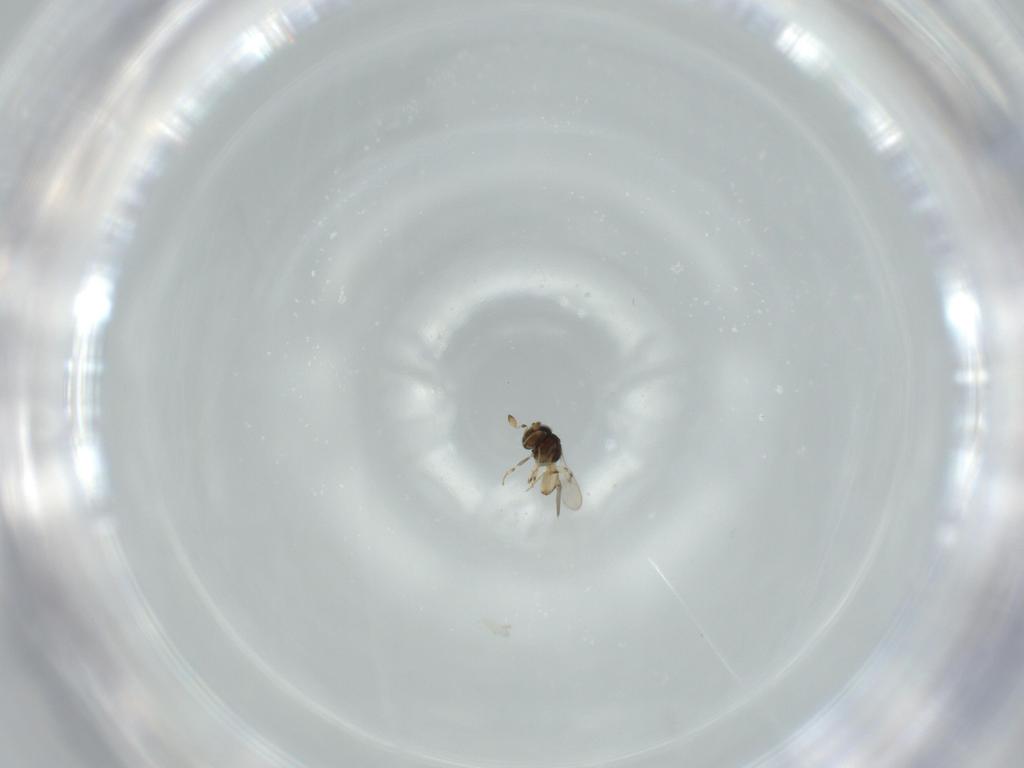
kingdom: Animalia
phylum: Arthropoda
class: Insecta
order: Hymenoptera
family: Scelionidae
